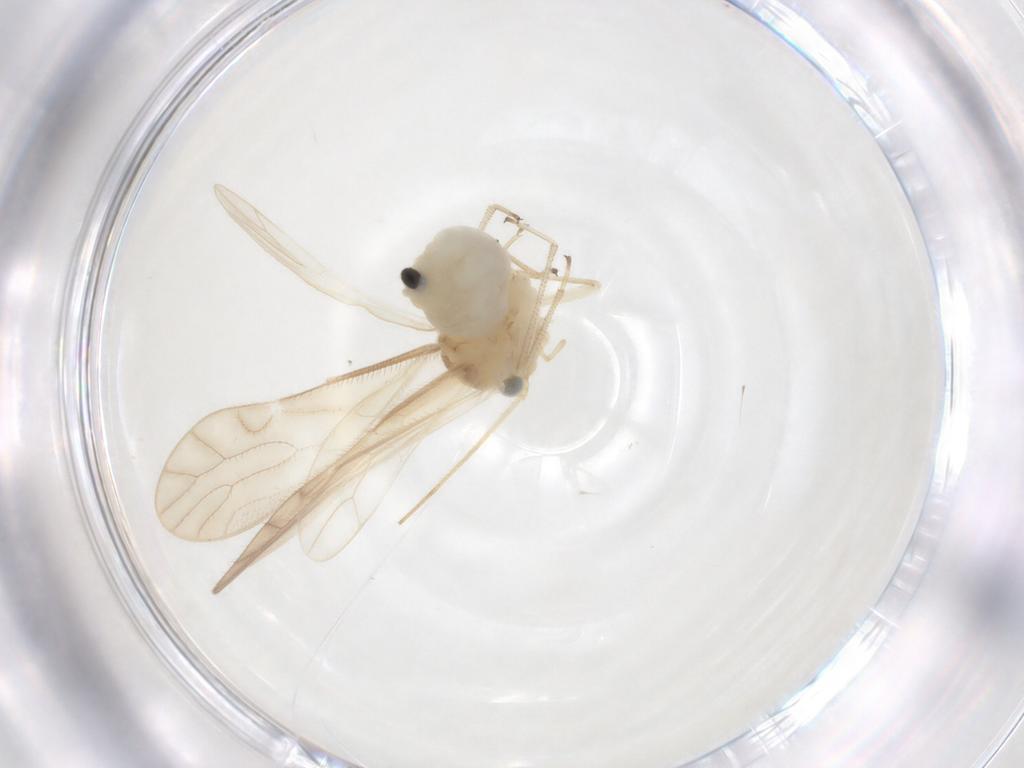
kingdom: Animalia
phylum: Arthropoda
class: Insecta
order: Psocodea
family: Caeciliusidae
